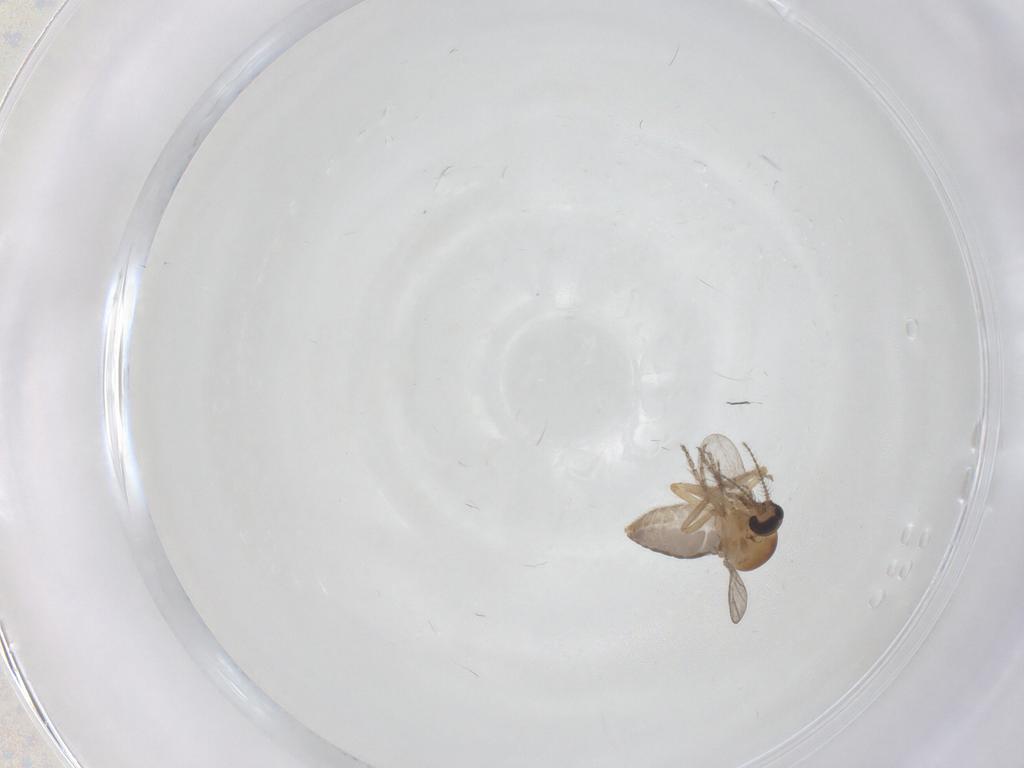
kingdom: Animalia
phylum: Arthropoda
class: Insecta
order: Diptera
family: Ceratopogonidae
